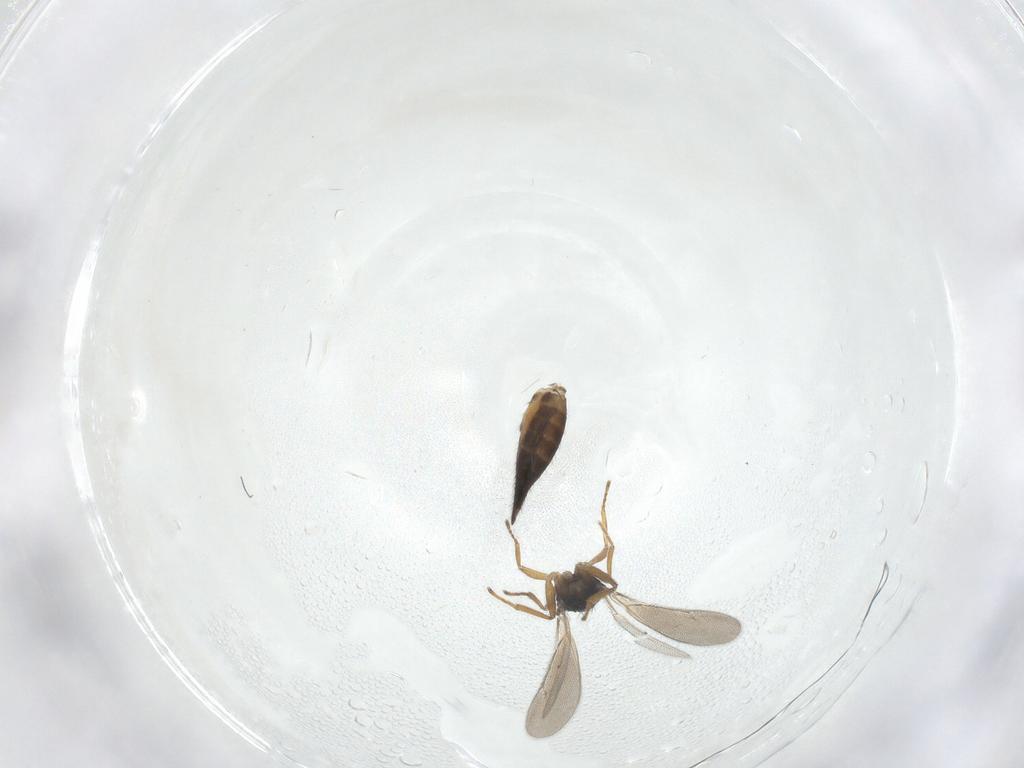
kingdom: Animalia
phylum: Arthropoda
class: Insecta
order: Hymenoptera
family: Eulophidae
